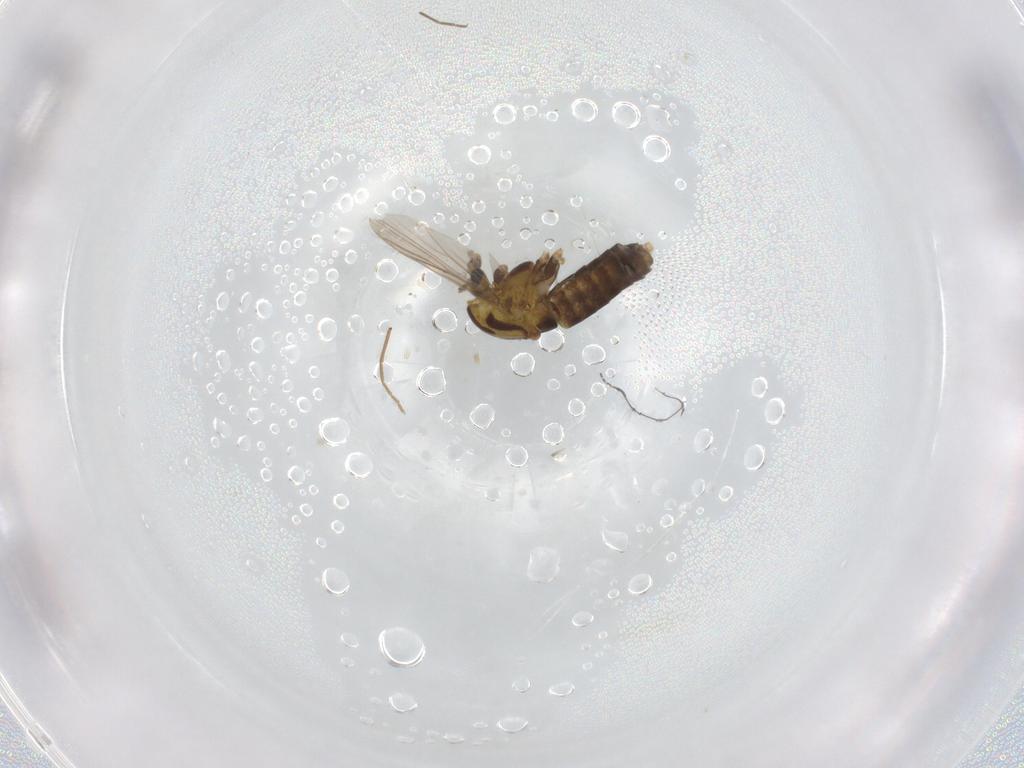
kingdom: Animalia
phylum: Arthropoda
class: Insecta
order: Diptera
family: Chironomidae
